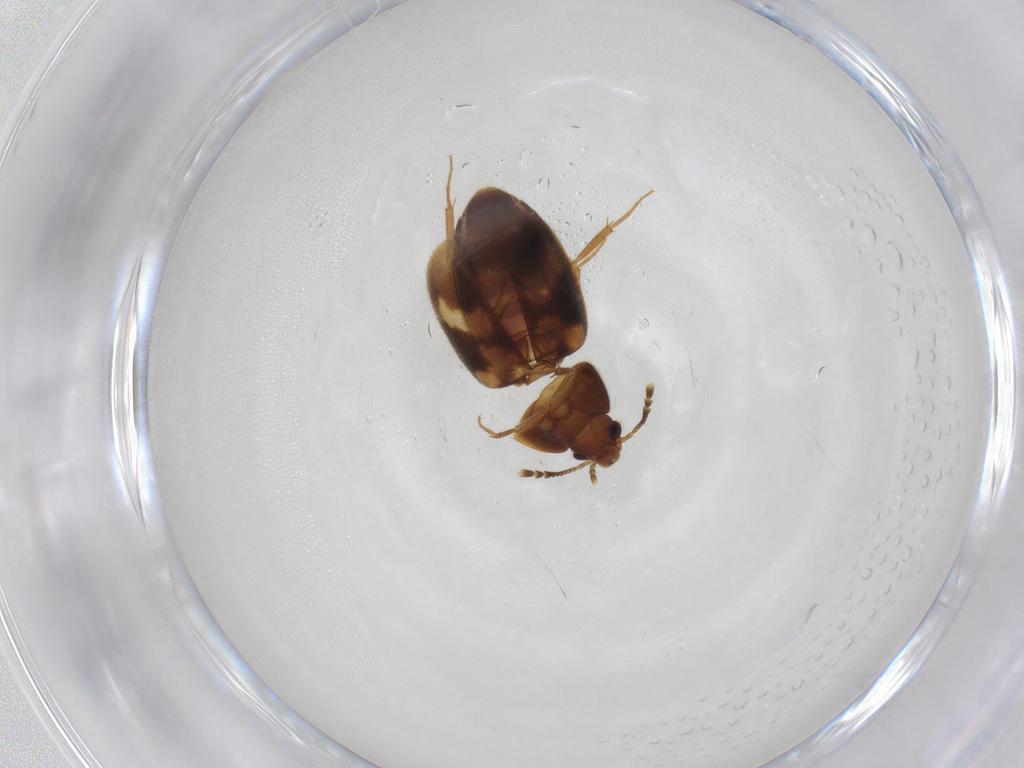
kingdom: Animalia
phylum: Arthropoda
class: Insecta
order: Coleoptera
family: Mycetophagidae
